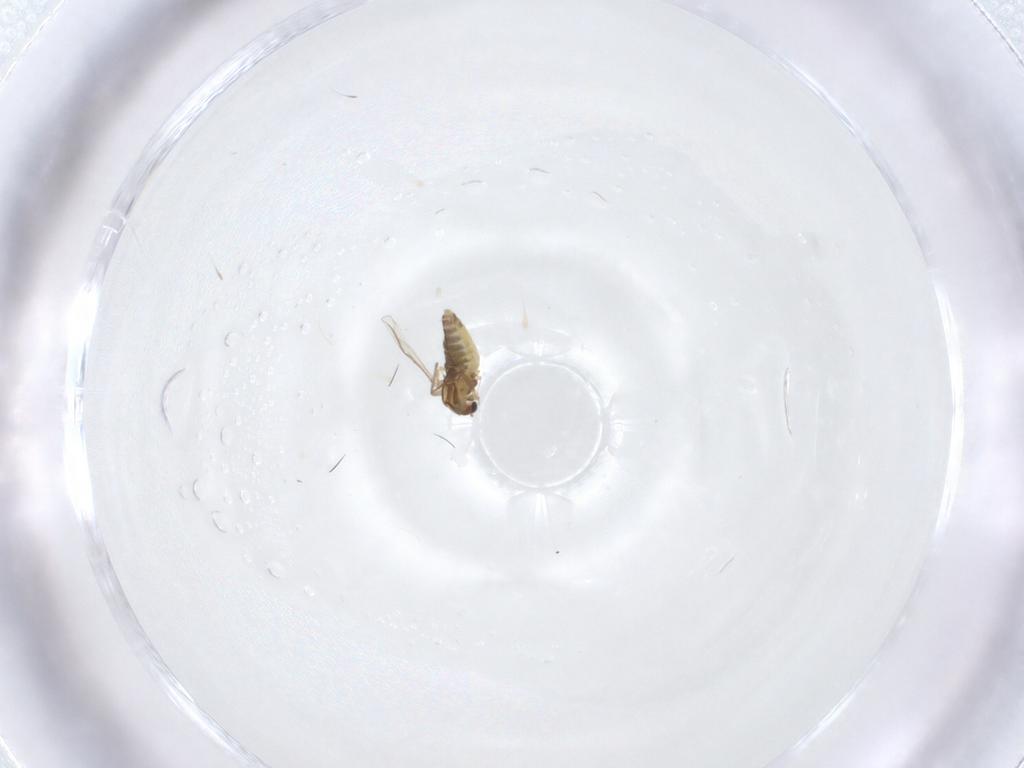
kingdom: Animalia
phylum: Arthropoda
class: Insecta
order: Diptera
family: Chironomidae
